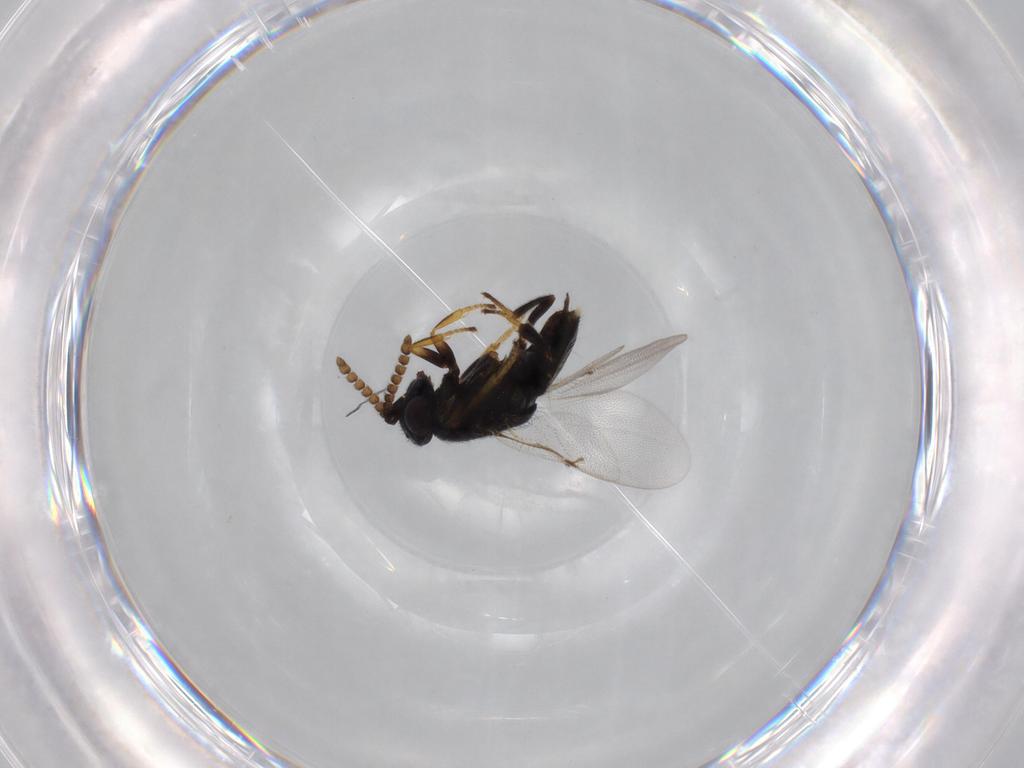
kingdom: Animalia
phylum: Arthropoda
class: Insecta
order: Hymenoptera
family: Encyrtidae
